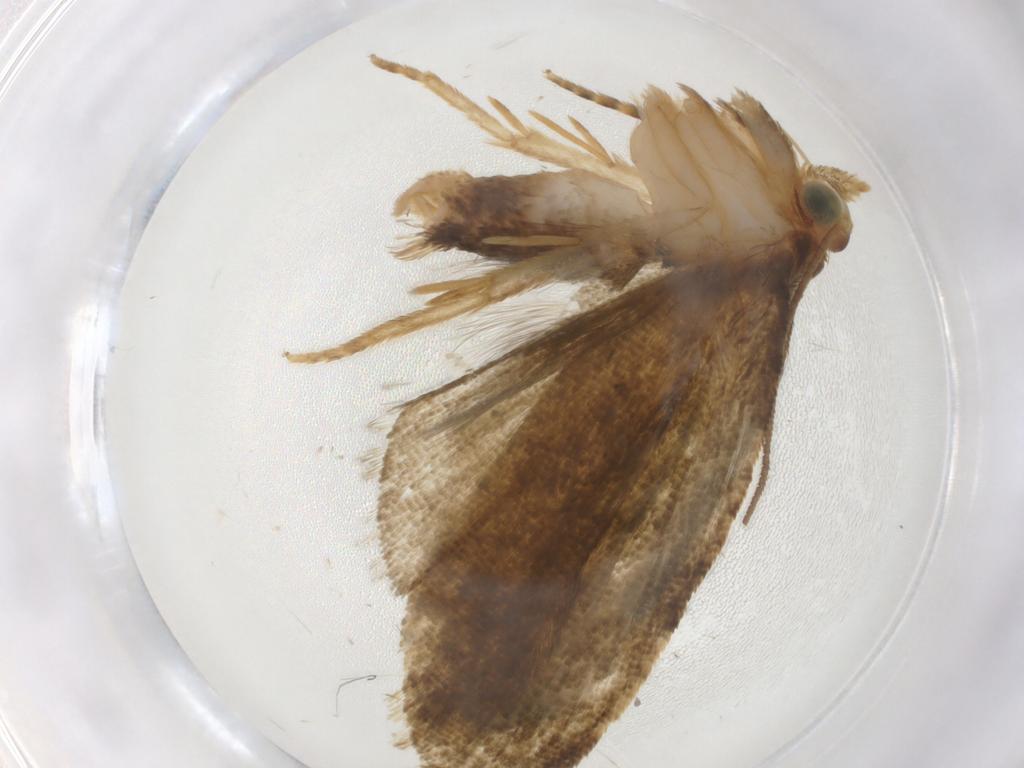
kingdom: Animalia
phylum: Arthropoda
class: Insecta
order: Lepidoptera
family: Tortricidae
